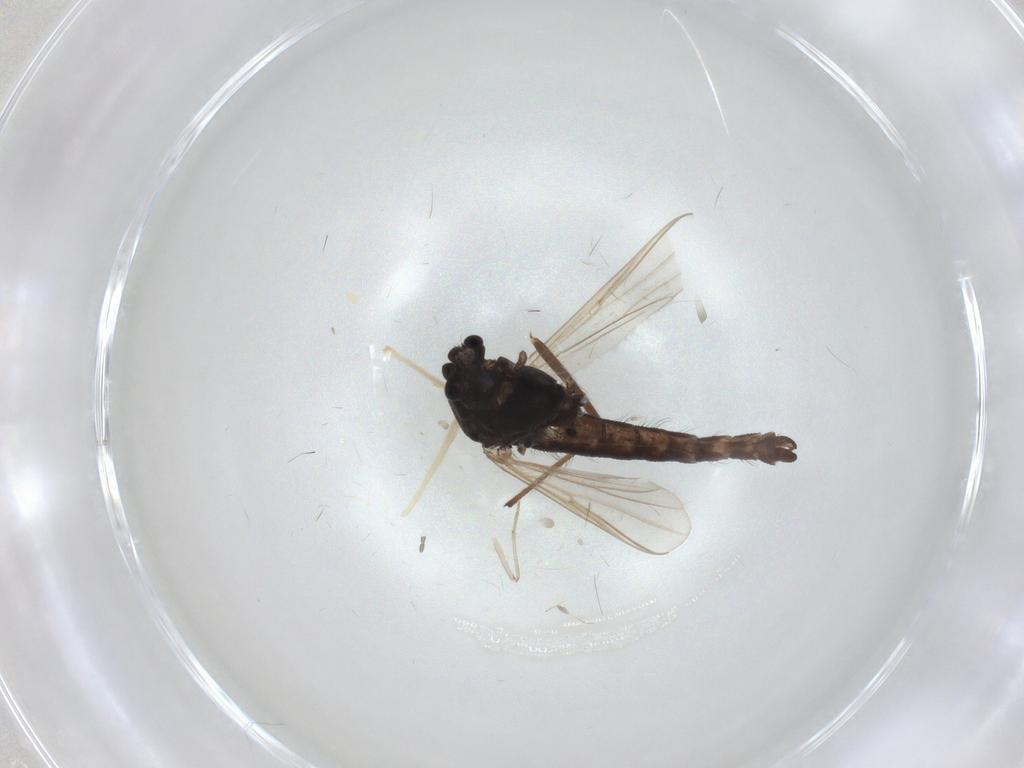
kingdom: Animalia
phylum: Arthropoda
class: Insecta
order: Diptera
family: Sciaridae
